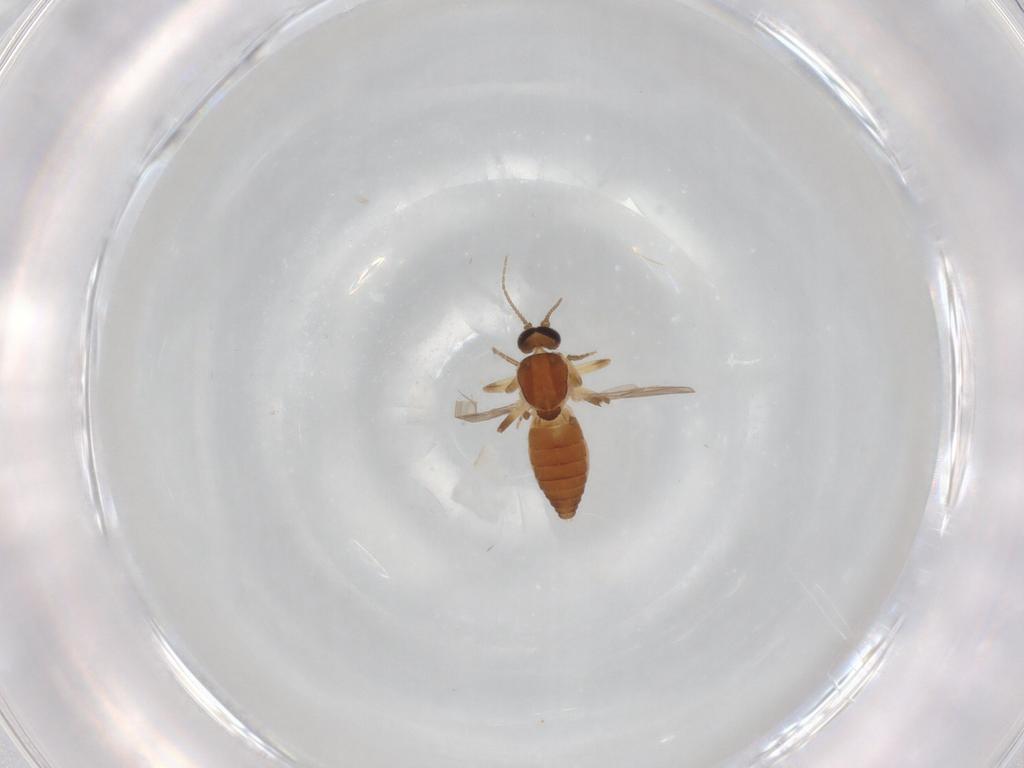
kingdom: Animalia
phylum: Arthropoda
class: Insecta
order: Diptera
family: Ceratopogonidae
